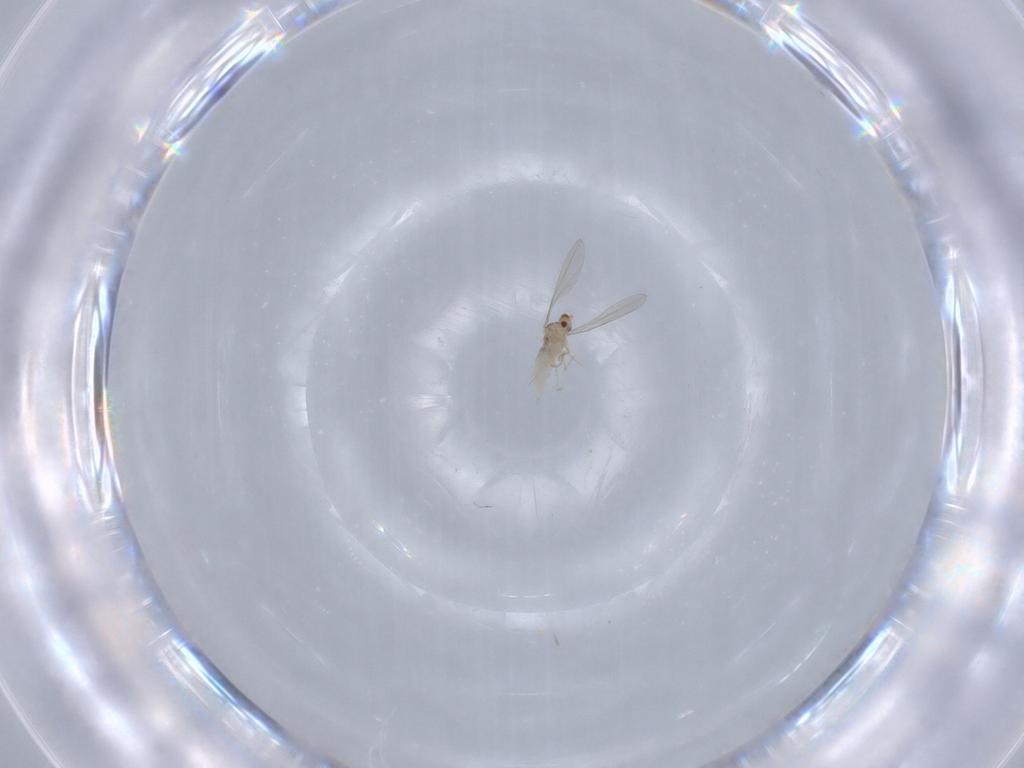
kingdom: Animalia
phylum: Arthropoda
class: Insecta
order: Diptera
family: Cecidomyiidae
